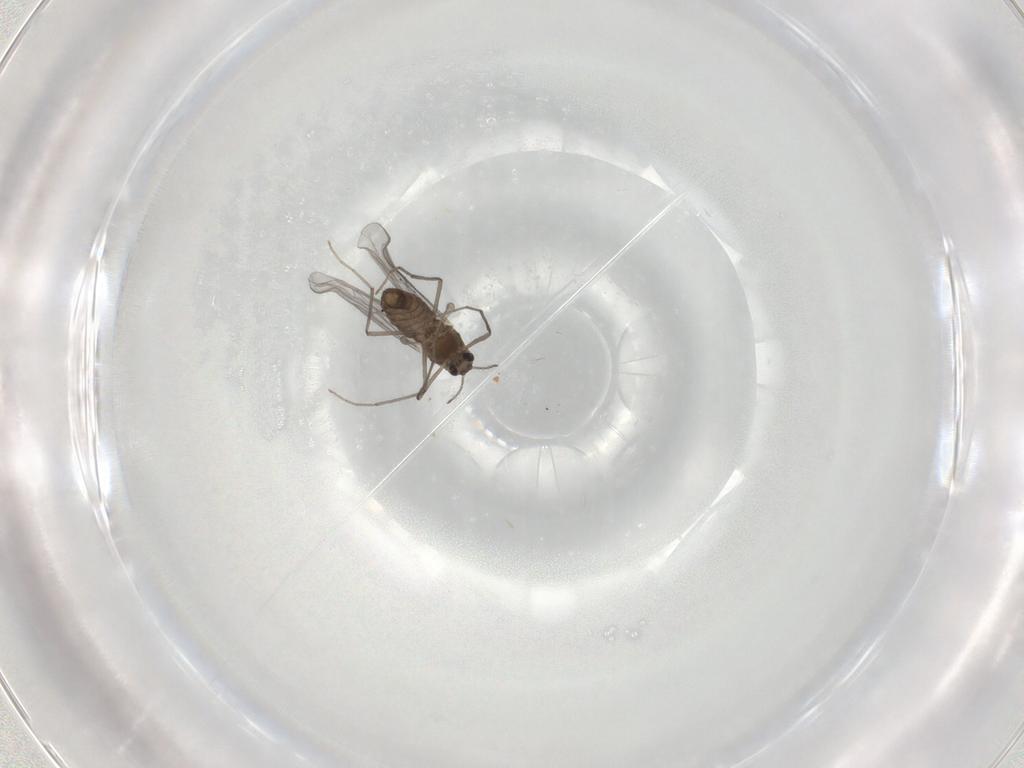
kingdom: Animalia
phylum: Arthropoda
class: Insecta
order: Diptera
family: Chironomidae
